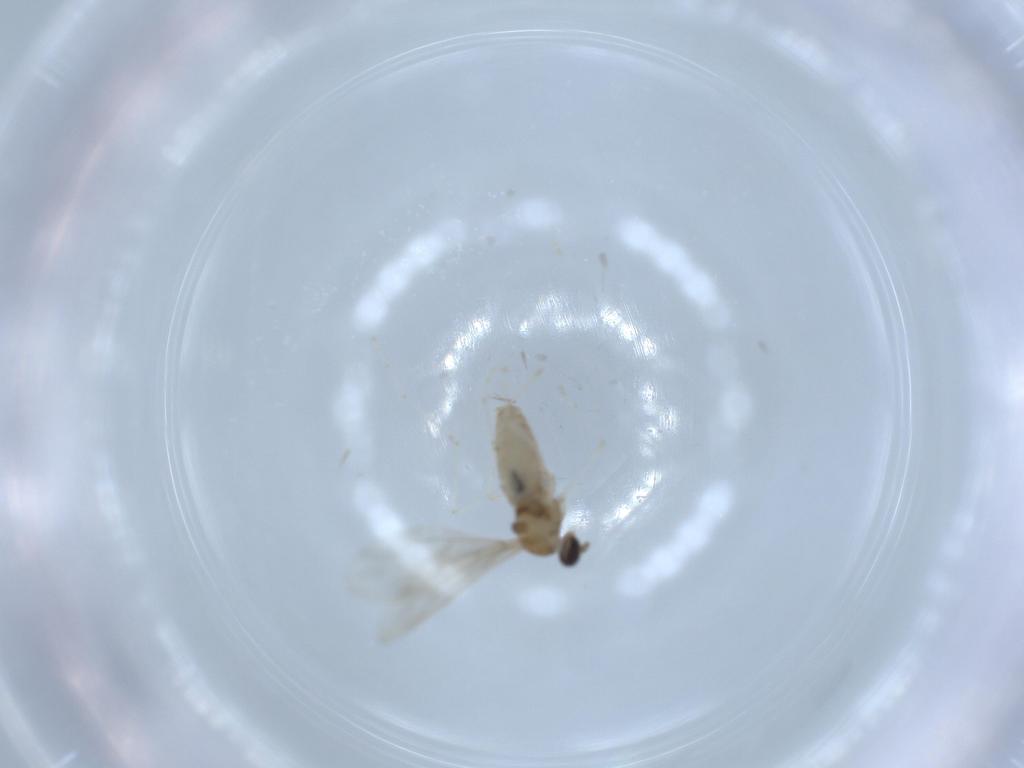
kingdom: Animalia
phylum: Arthropoda
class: Insecta
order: Diptera
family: Cecidomyiidae
